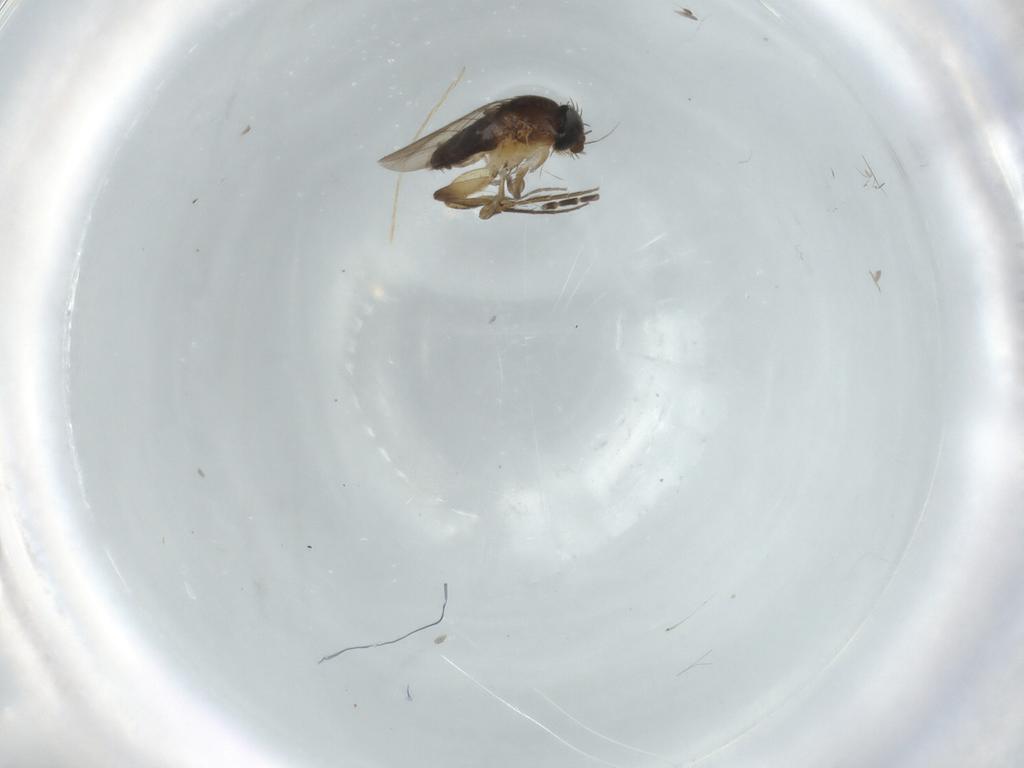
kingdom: Animalia
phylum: Arthropoda
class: Insecta
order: Diptera
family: Phoridae
